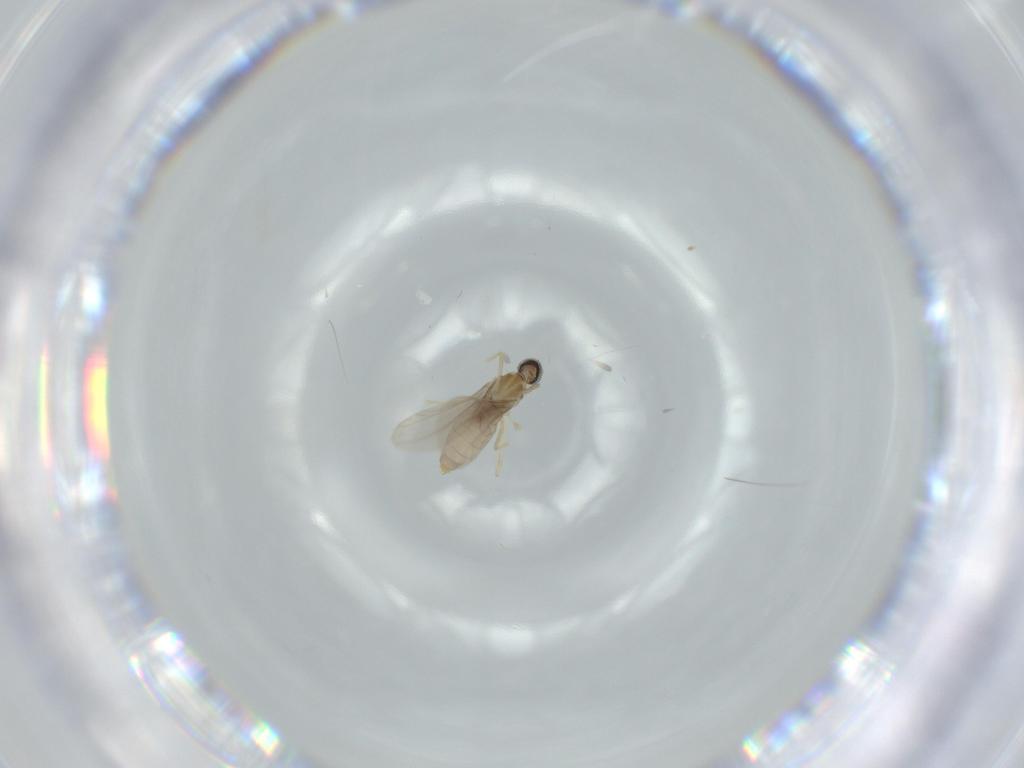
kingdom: Animalia
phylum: Arthropoda
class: Insecta
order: Diptera
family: Cecidomyiidae
